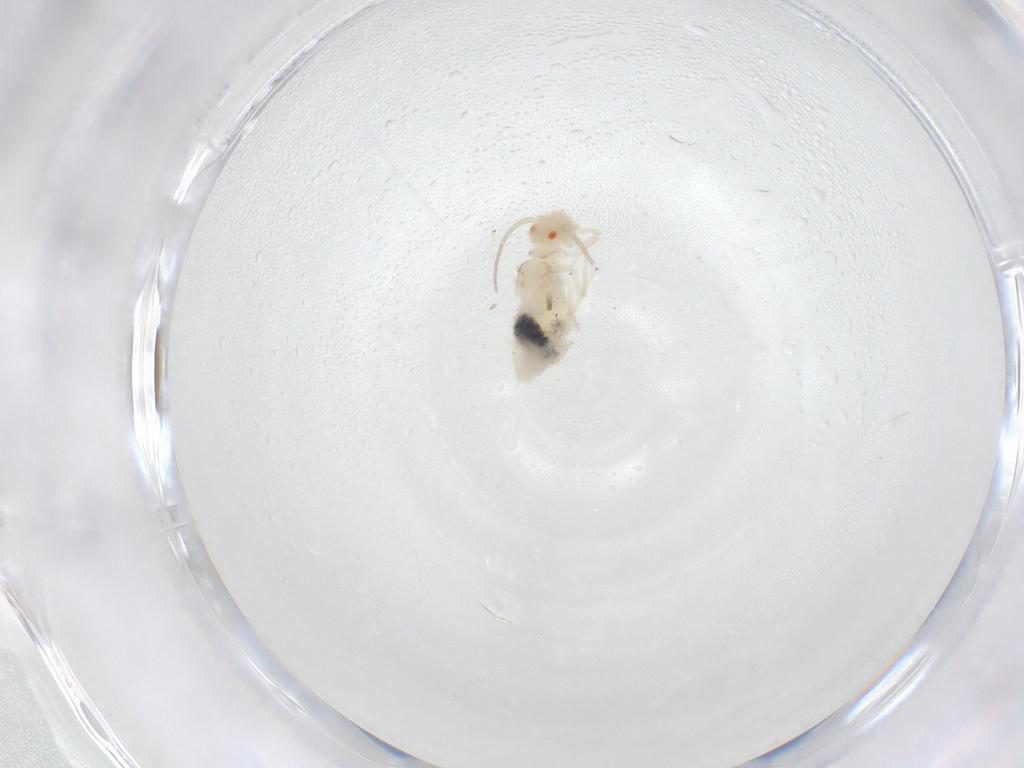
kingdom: Animalia
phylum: Arthropoda
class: Insecta
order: Psocodea
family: Caeciliusidae
